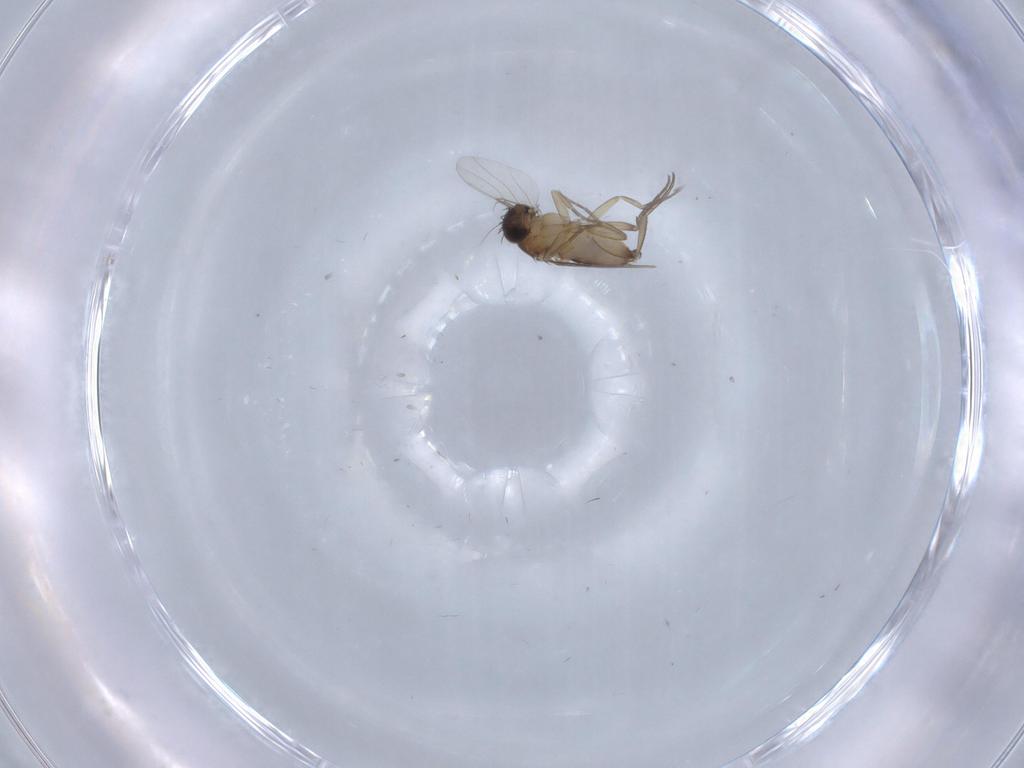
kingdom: Animalia
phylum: Arthropoda
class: Insecta
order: Diptera
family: Phoridae
